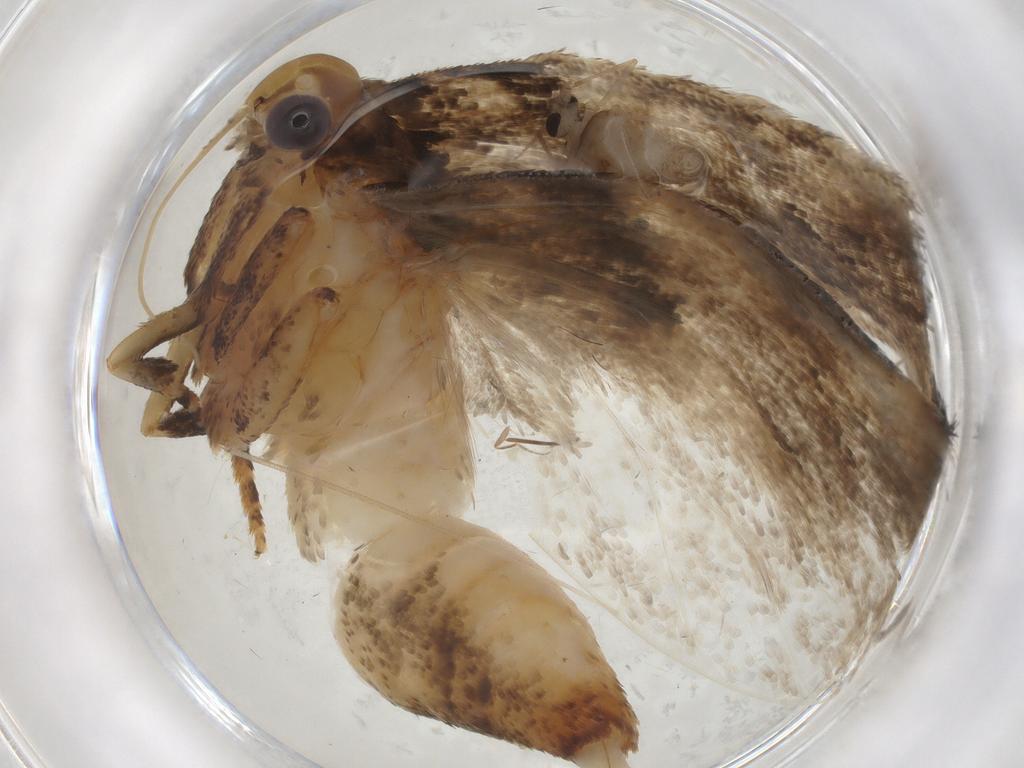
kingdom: Animalia
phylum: Arthropoda
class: Insecta
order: Lepidoptera
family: Gelechiidae
